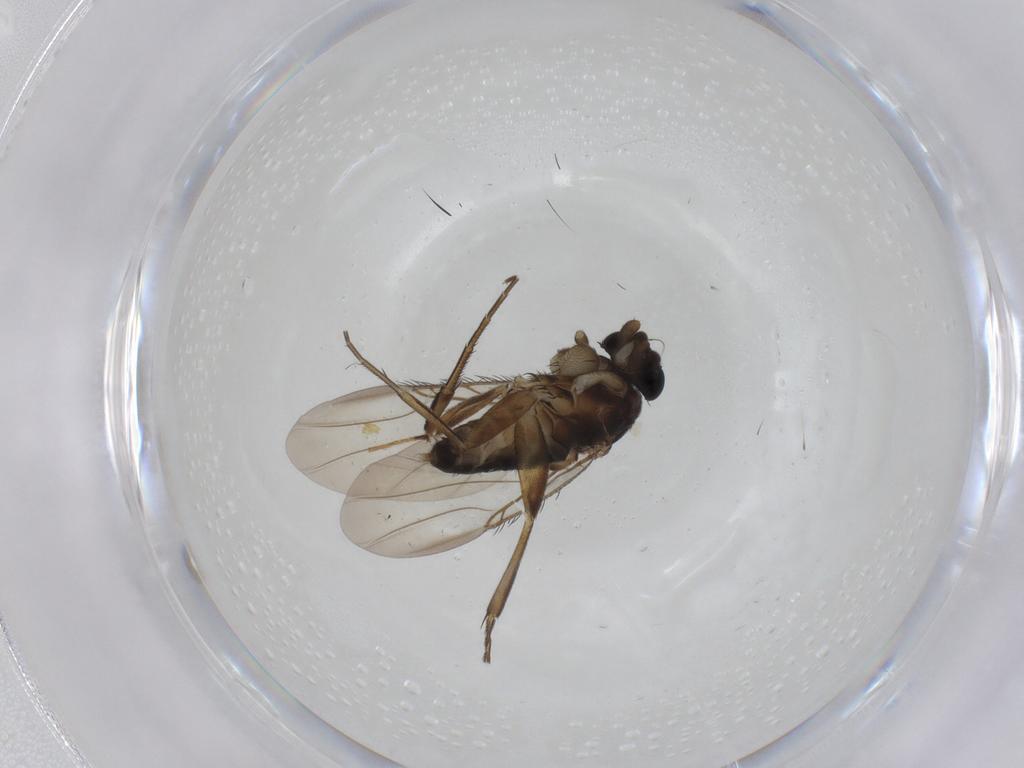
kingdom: Animalia
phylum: Arthropoda
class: Insecta
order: Diptera
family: Phoridae
